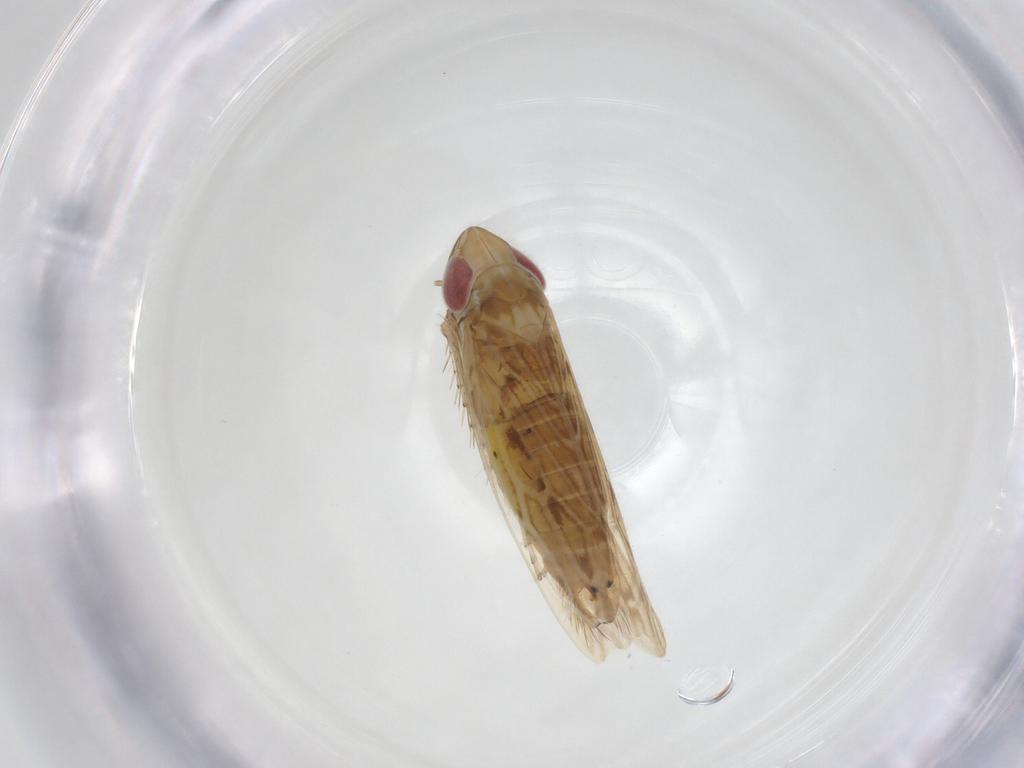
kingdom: Animalia
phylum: Arthropoda
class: Insecta
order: Hemiptera
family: Cicadellidae
